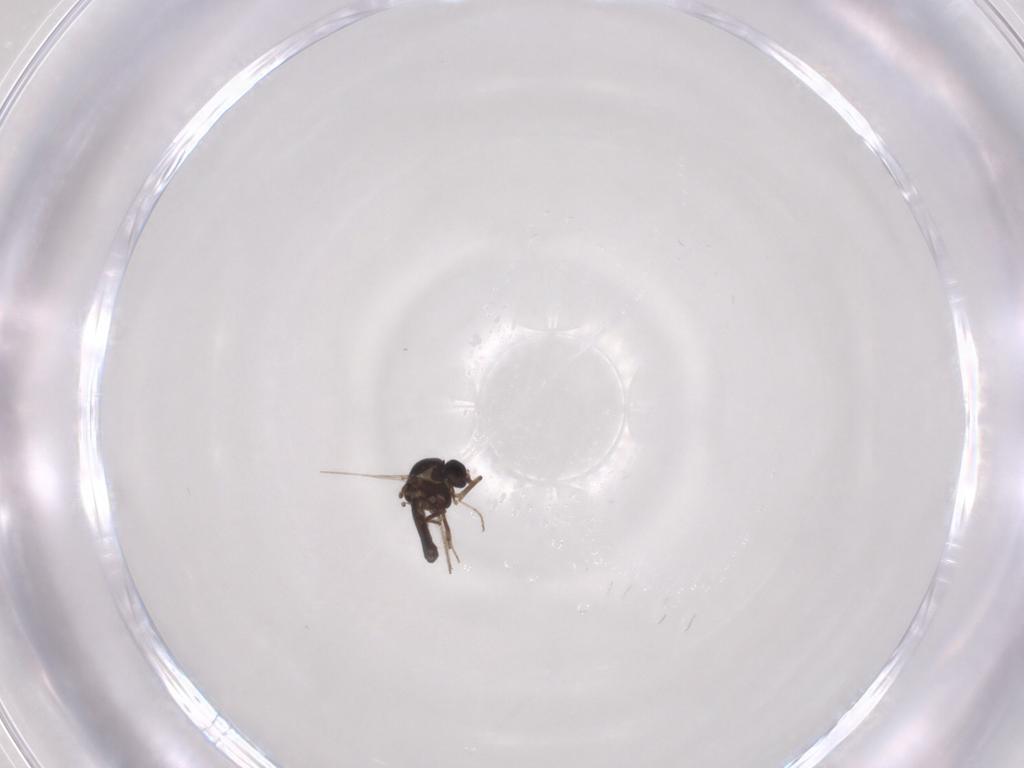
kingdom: Animalia
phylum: Arthropoda
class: Insecta
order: Diptera
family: Ceratopogonidae
